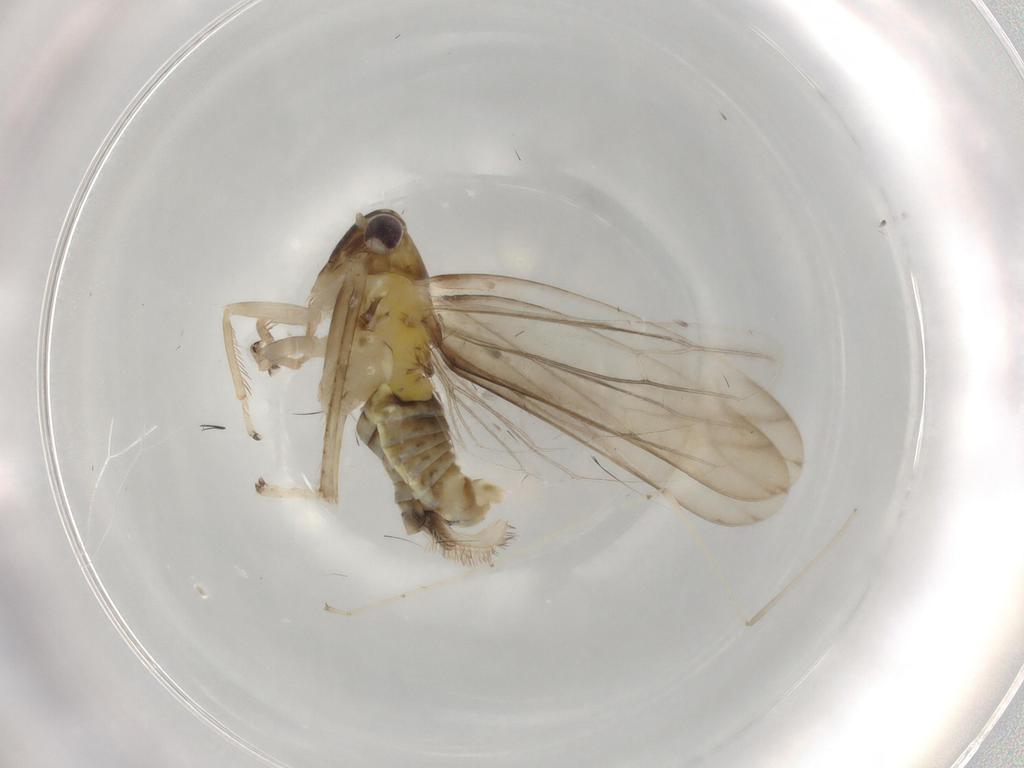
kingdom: Animalia
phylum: Arthropoda
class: Insecta
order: Hemiptera
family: Cicadellidae
